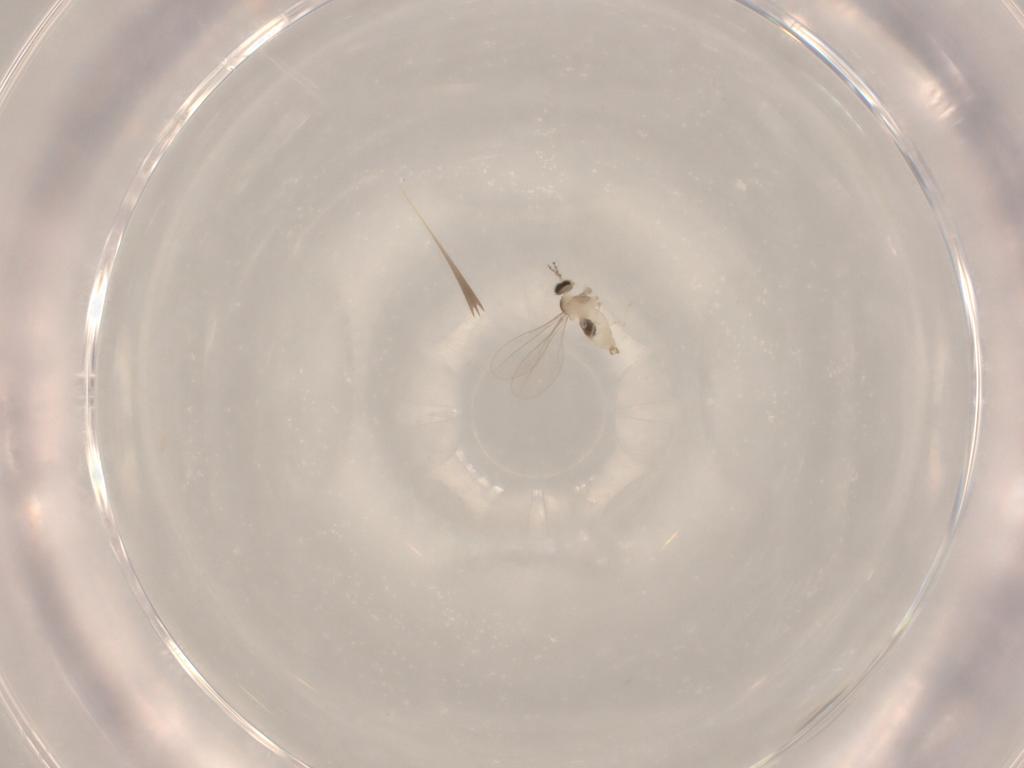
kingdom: Animalia
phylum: Arthropoda
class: Insecta
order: Diptera
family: Cecidomyiidae
